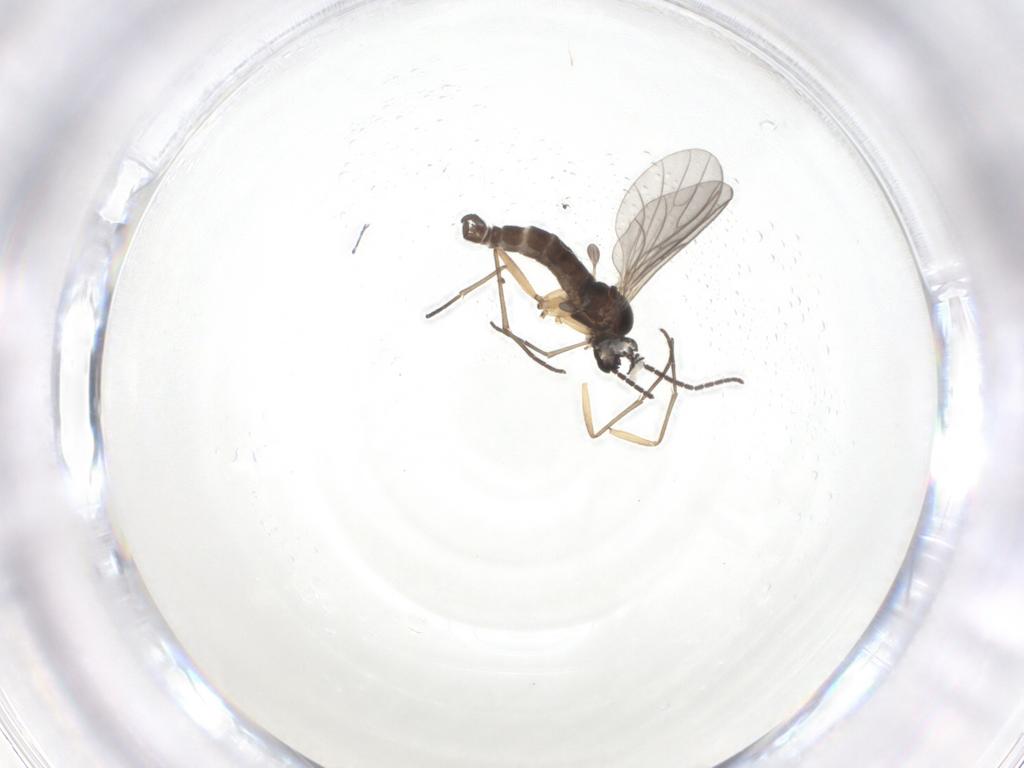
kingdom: Animalia
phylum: Arthropoda
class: Insecta
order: Diptera
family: Sciaridae
